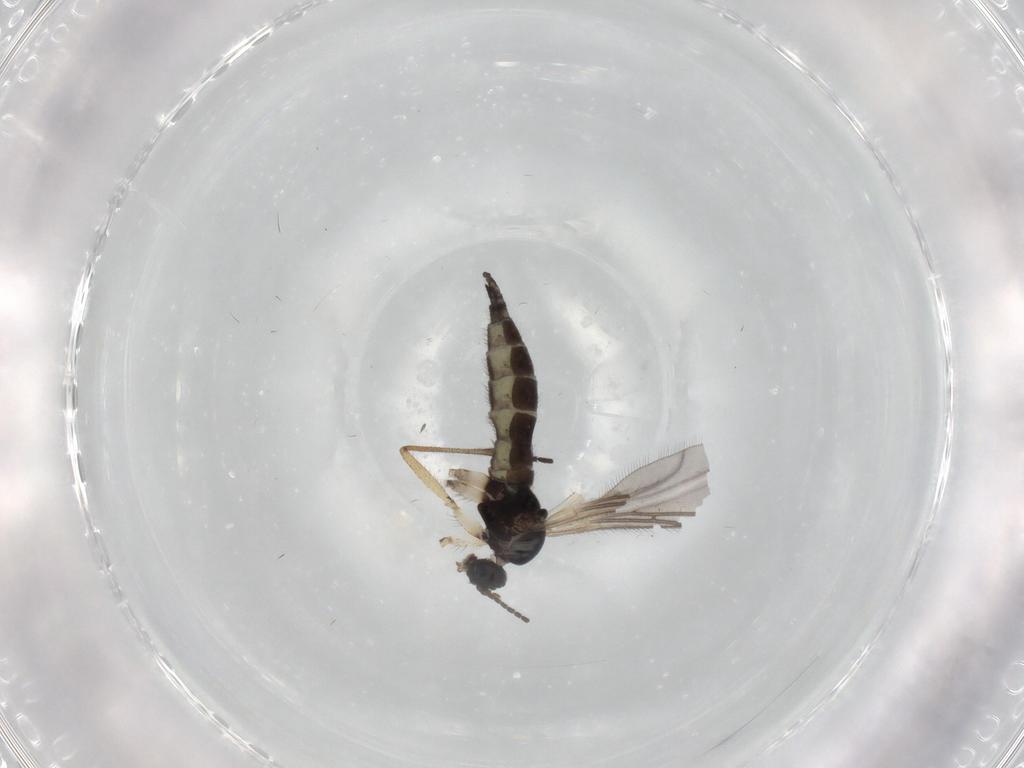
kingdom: Animalia
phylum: Arthropoda
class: Insecta
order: Diptera
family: Sciaridae
